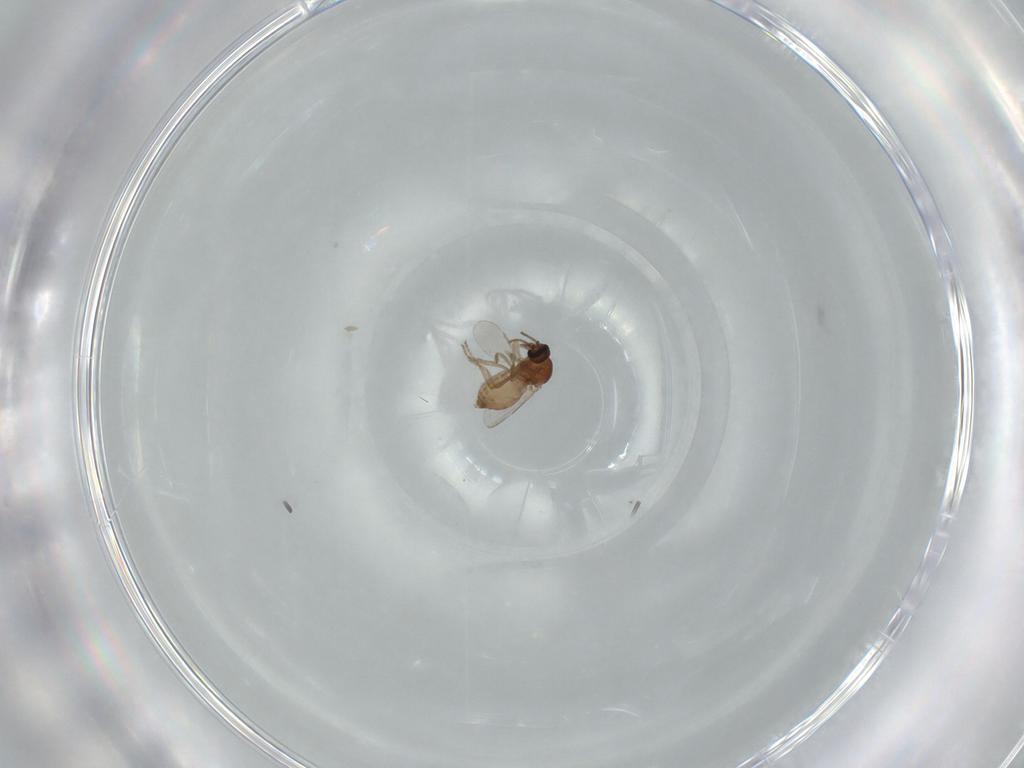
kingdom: Animalia
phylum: Arthropoda
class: Insecta
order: Diptera
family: Ceratopogonidae
